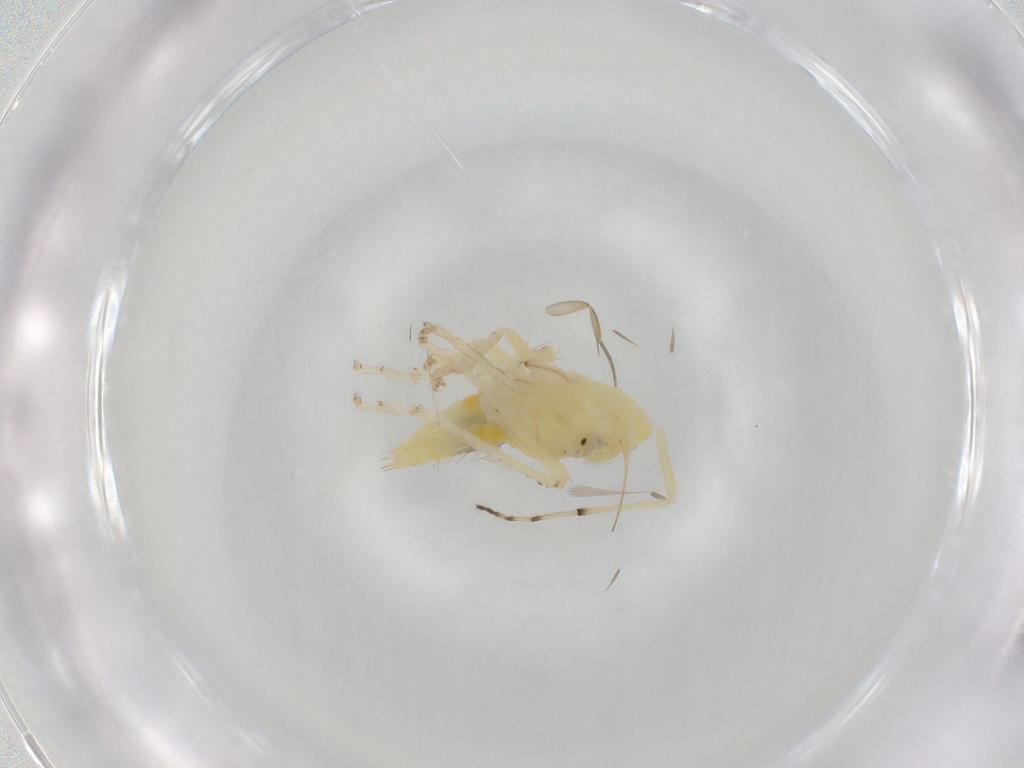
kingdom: Animalia
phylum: Arthropoda
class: Insecta
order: Hemiptera
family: Cicadellidae
